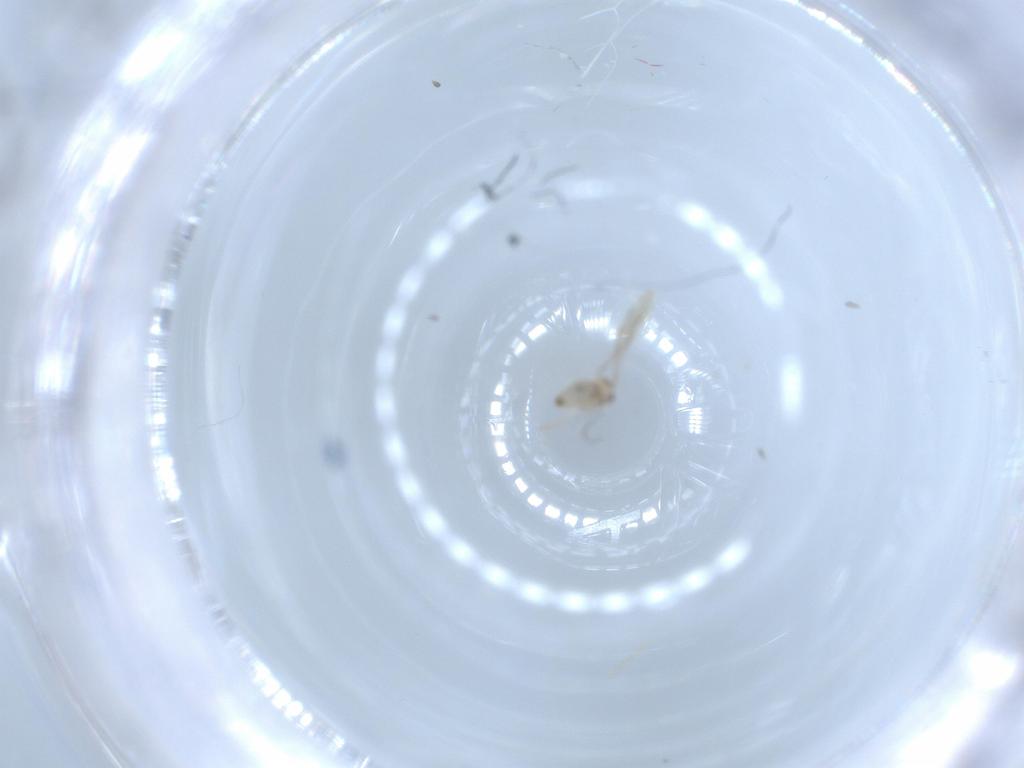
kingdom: Animalia
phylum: Arthropoda
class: Insecta
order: Diptera
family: Cecidomyiidae
